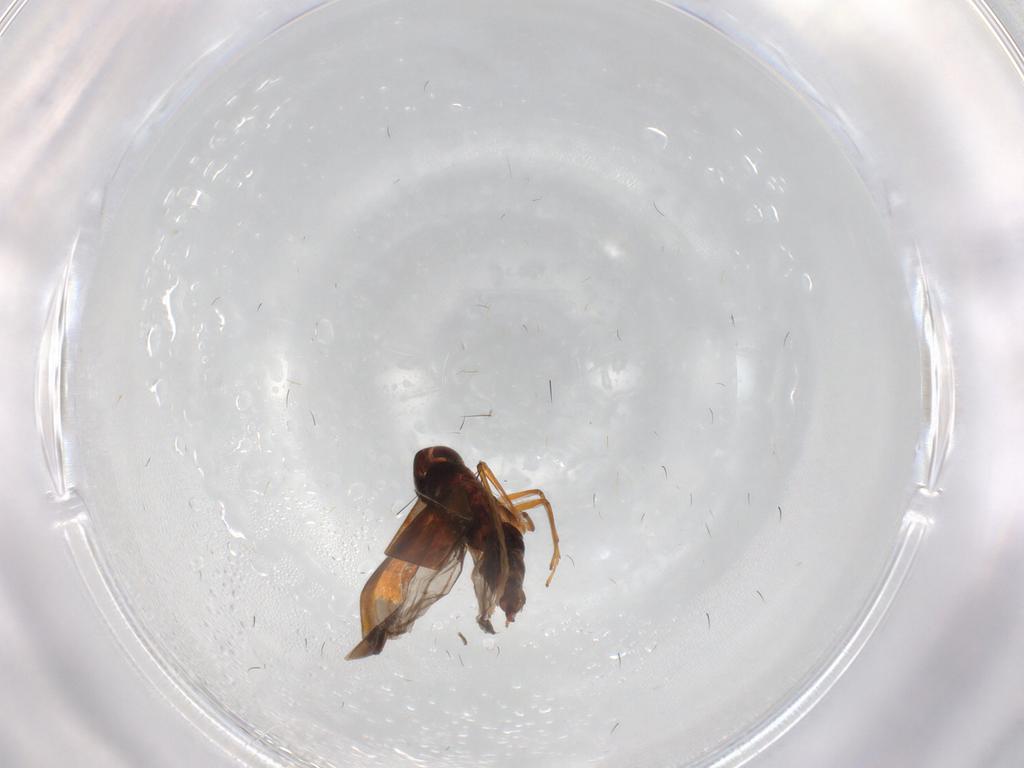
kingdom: Animalia
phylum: Arthropoda
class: Insecta
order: Hemiptera
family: Cicadellidae
